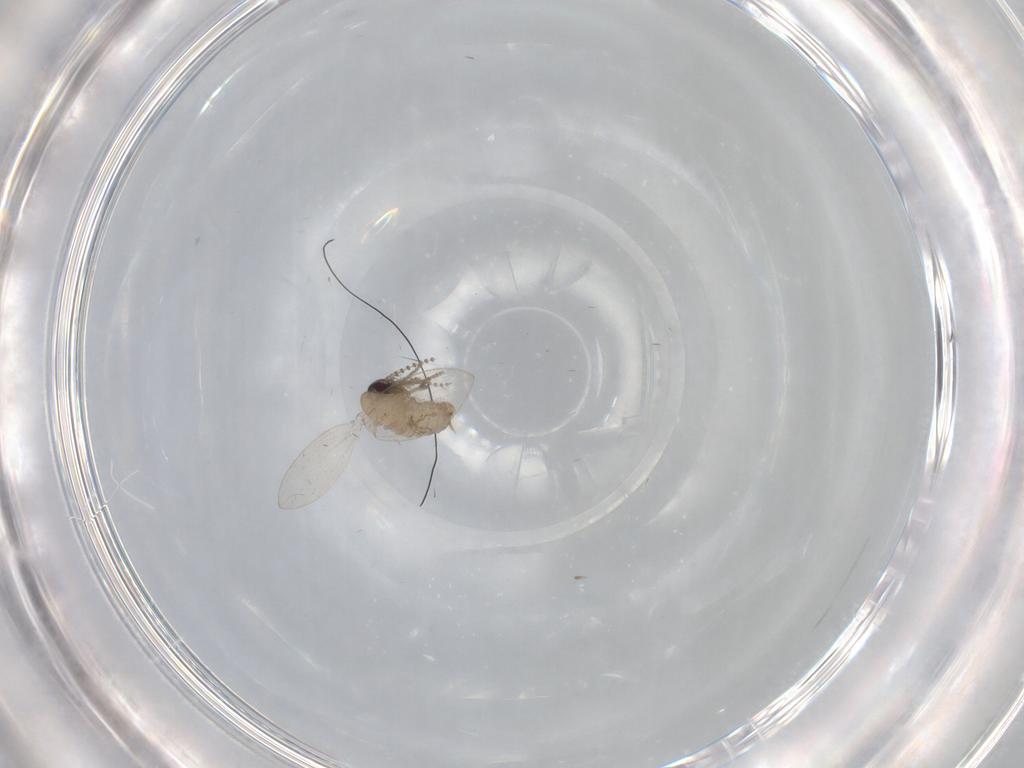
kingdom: Animalia
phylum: Arthropoda
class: Insecta
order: Diptera
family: Psychodidae
